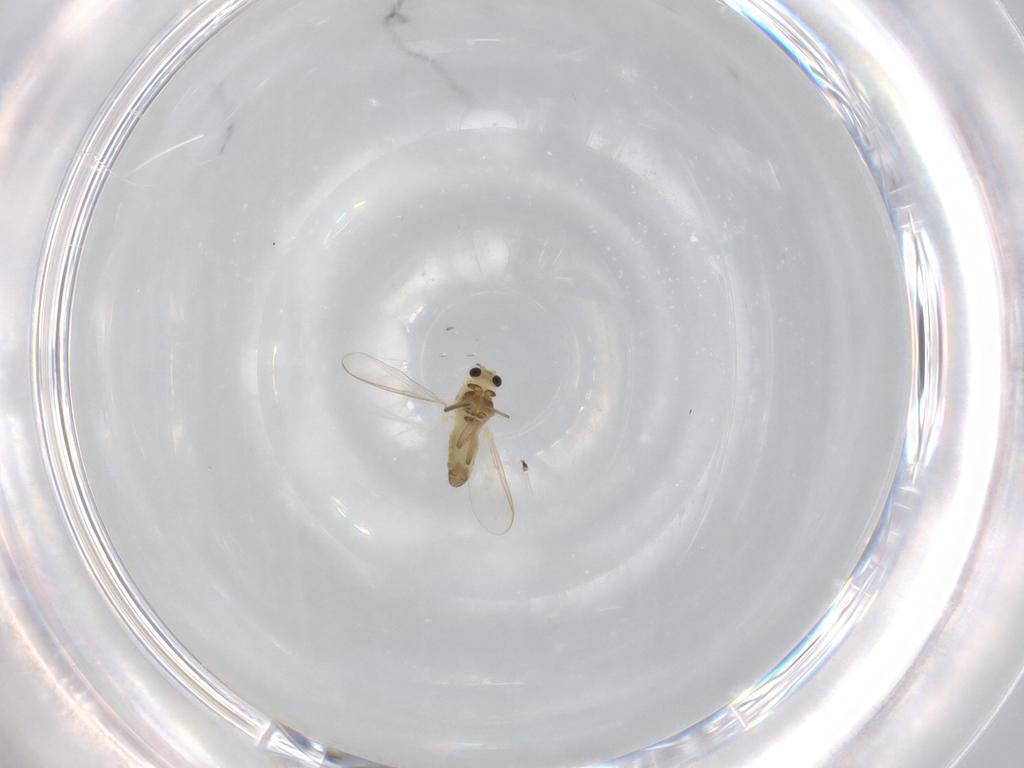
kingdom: Animalia
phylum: Arthropoda
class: Insecta
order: Diptera
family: Chironomidae
